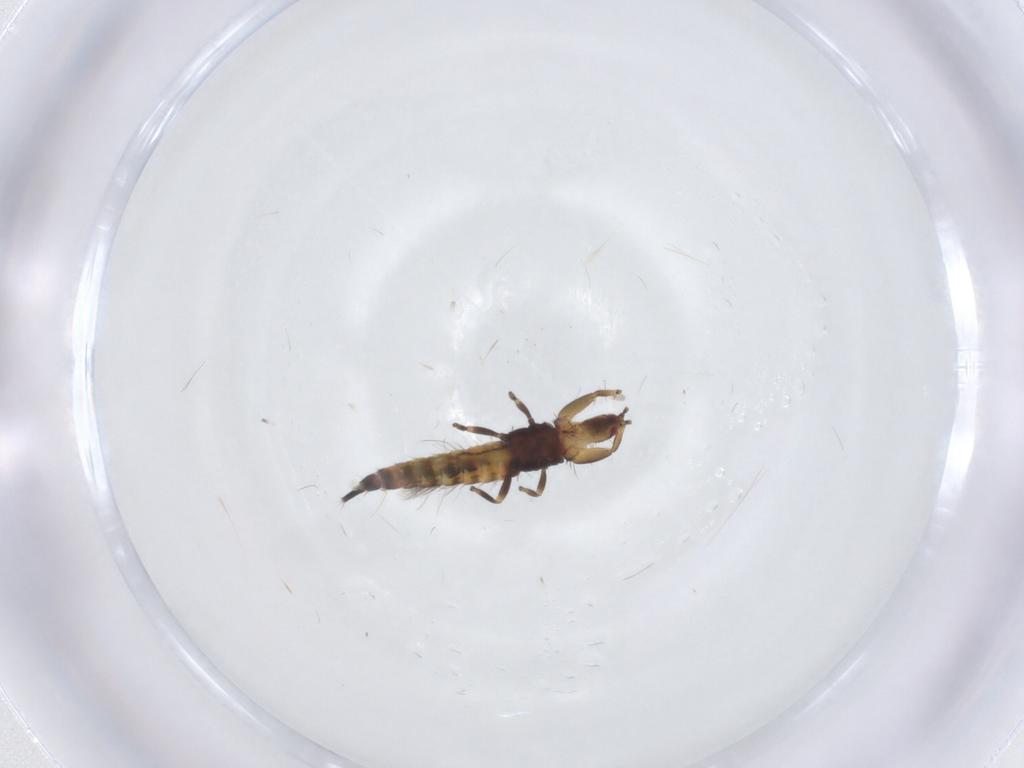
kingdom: Animalia
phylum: Arthropoda
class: Insecta
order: Thysanoptera
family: Phlaeothripidae
